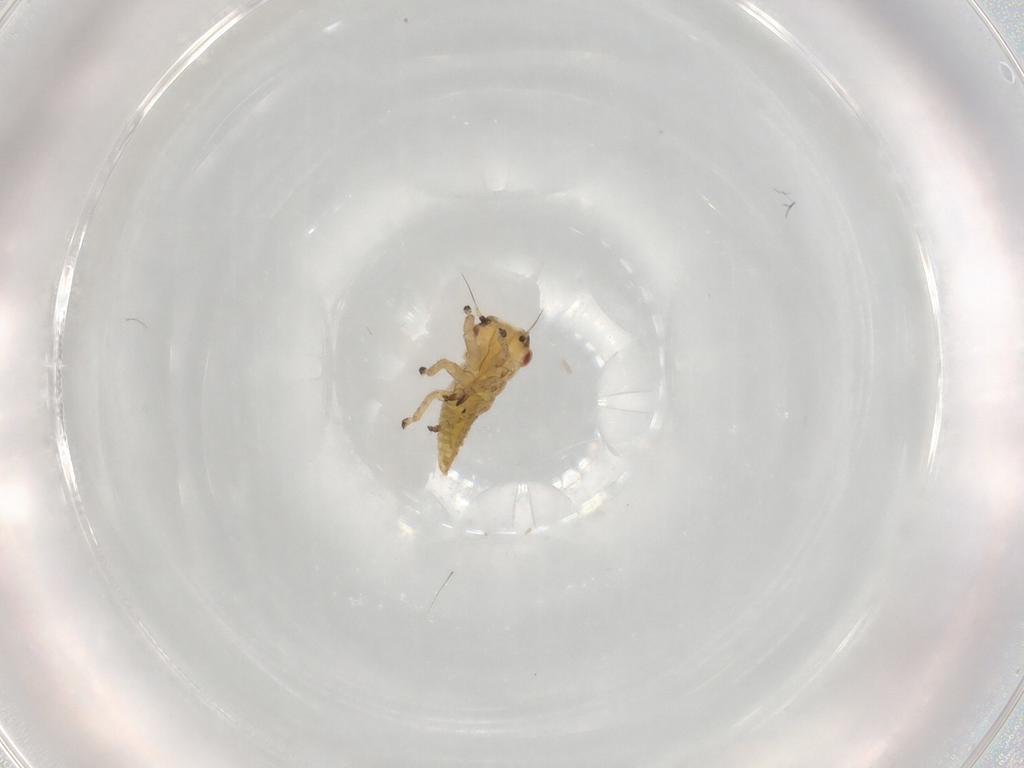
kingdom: Animalia
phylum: Arthropoda
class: Insecta
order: Hemiptera
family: Cicadellidae
